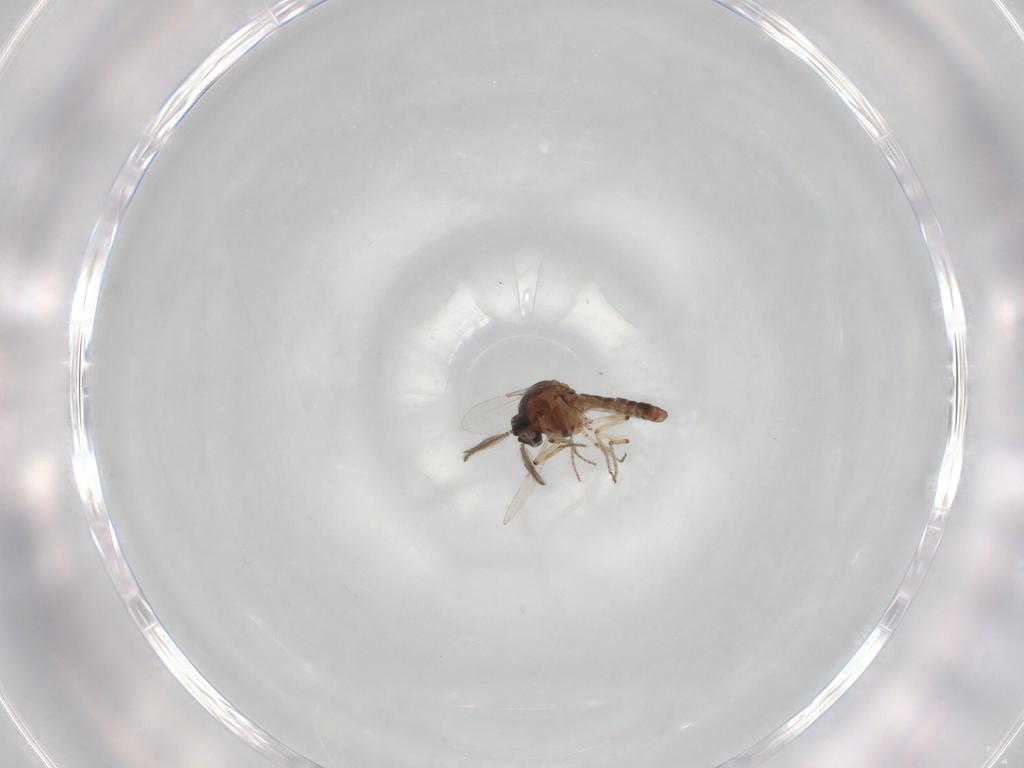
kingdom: Animalia
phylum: Arthropoda
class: Insecta
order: Diptera
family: Ceratopogonidae
